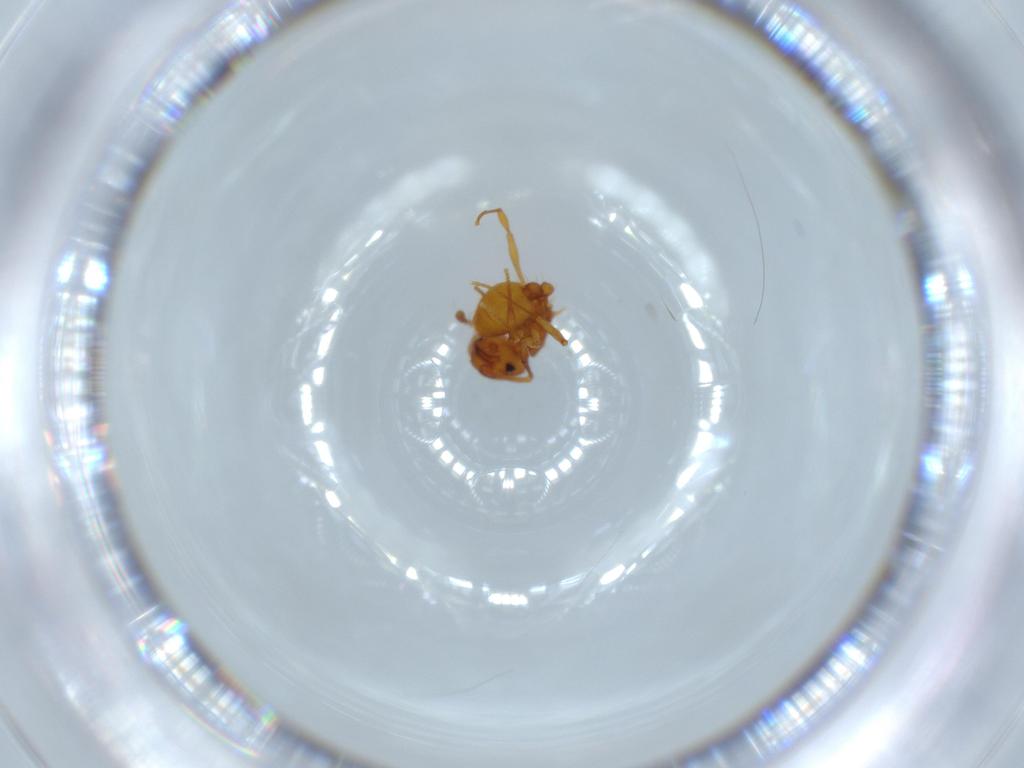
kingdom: Animalia
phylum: Arthropoda
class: Insecta
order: Hymenoptera
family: Formicidae
